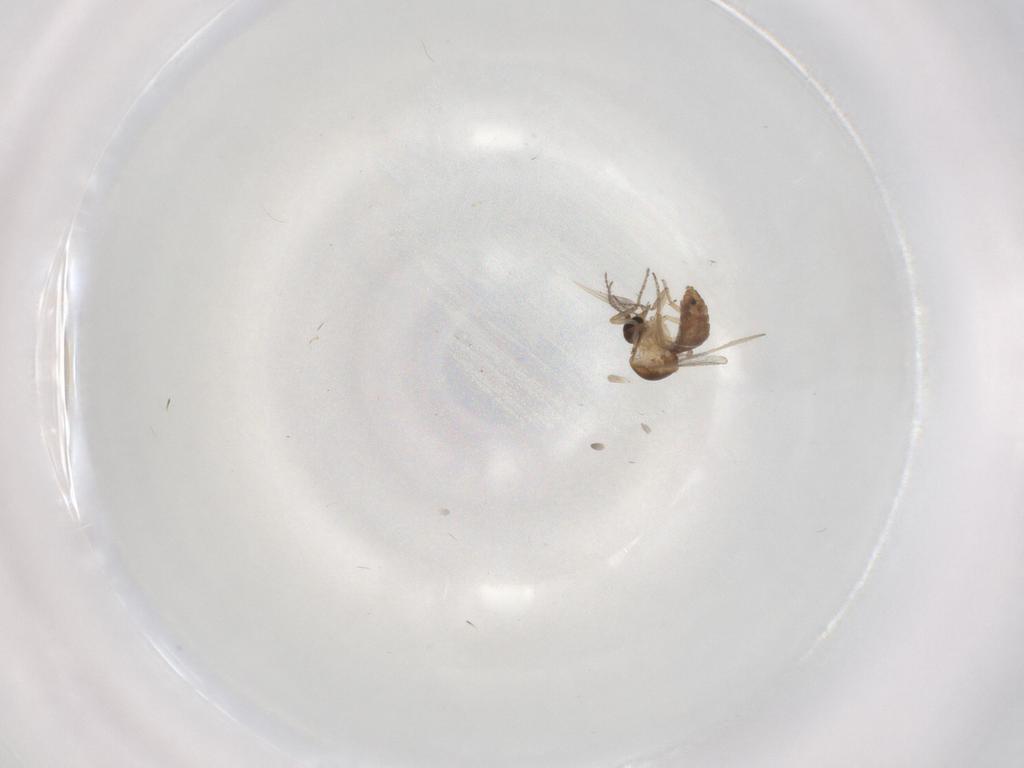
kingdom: Animalia
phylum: Arthropoda
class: Insecta
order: Diptera
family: Ceratopogonidae
